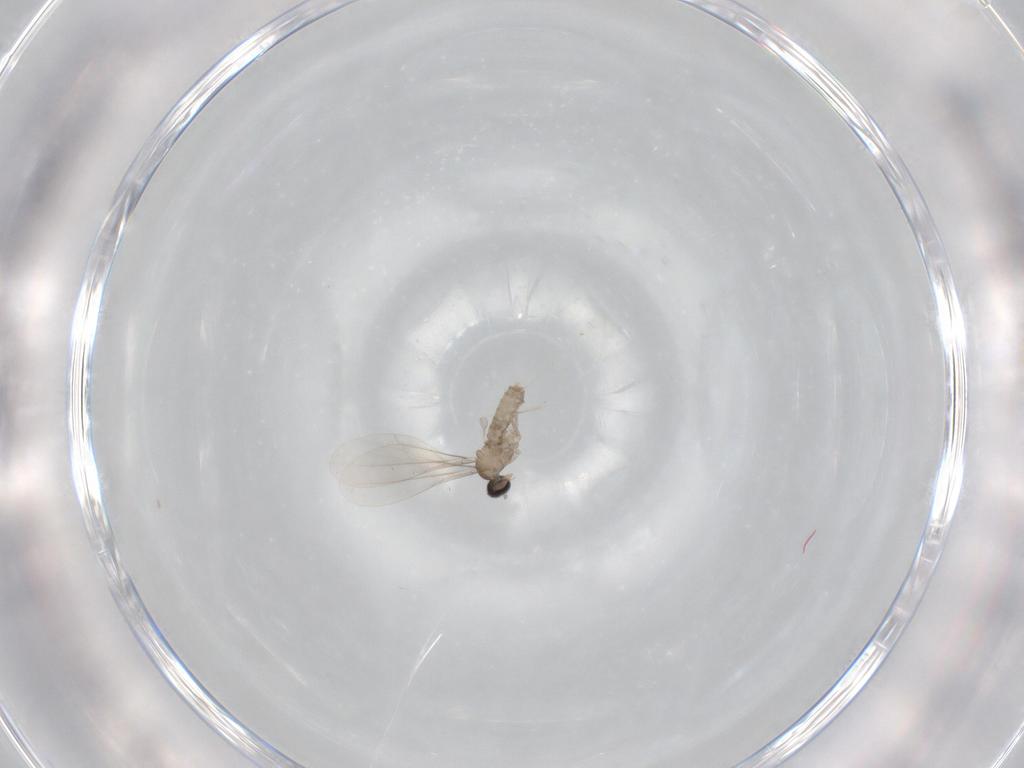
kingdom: Animalia
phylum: Arthropoda
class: Insecta
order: Diptera
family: Cecidomyiidae
